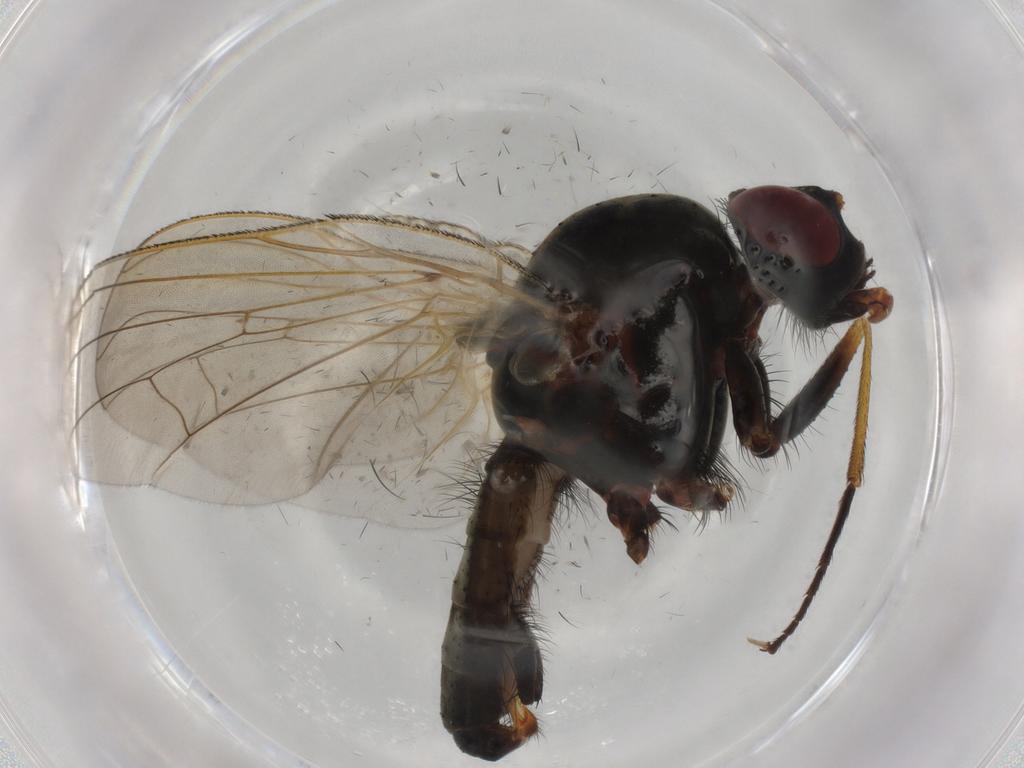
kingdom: Animalia
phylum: Arthropoda
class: Insecta
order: Diptera
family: Anthomyiidae
